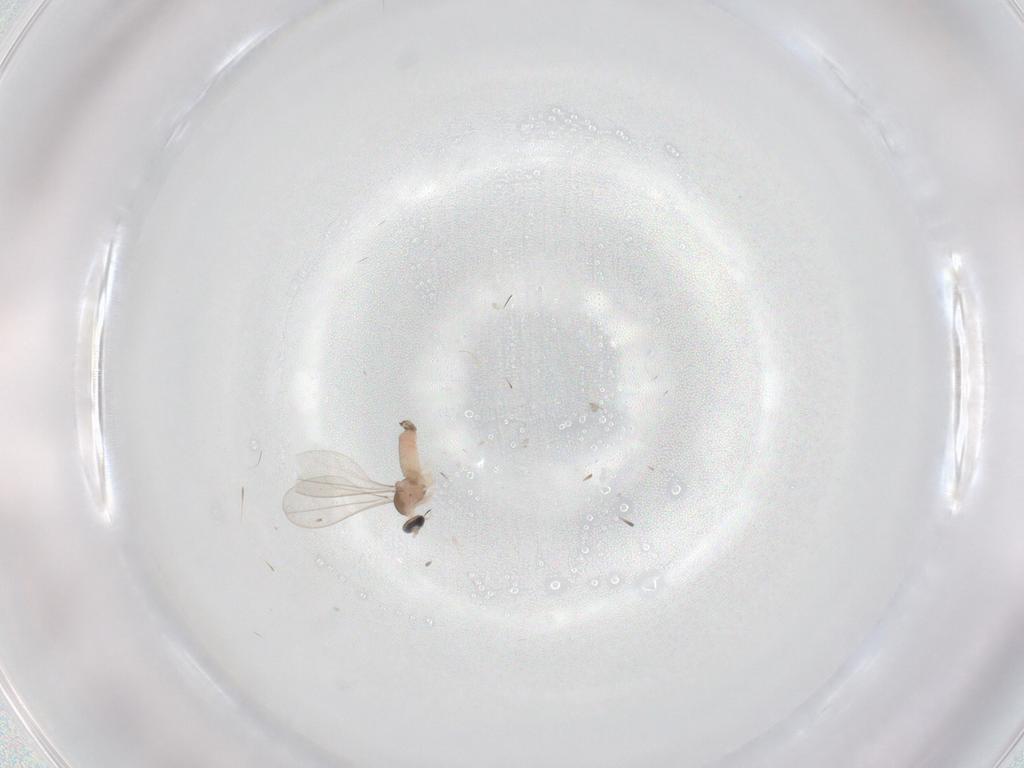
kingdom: Animalia
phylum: Arthropoda
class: Insecta
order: Diptera
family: Cecidomyiidae
